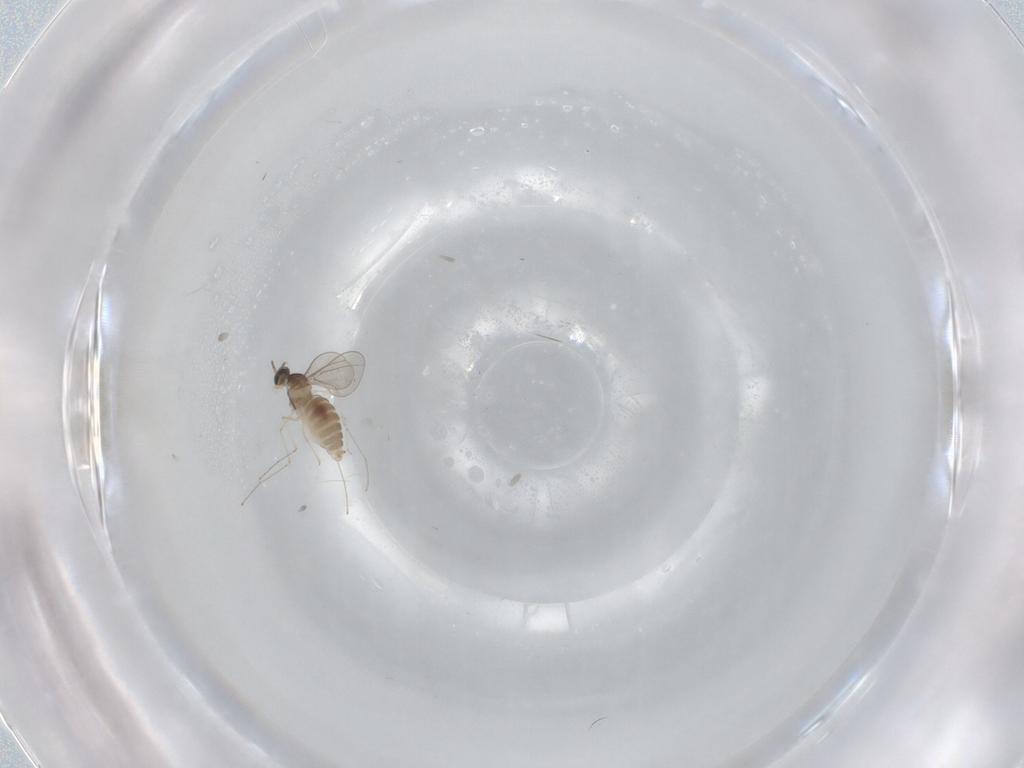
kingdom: Animalia
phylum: Arthropoda
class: Insecta
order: Diptera
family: Cecidomyiidae
